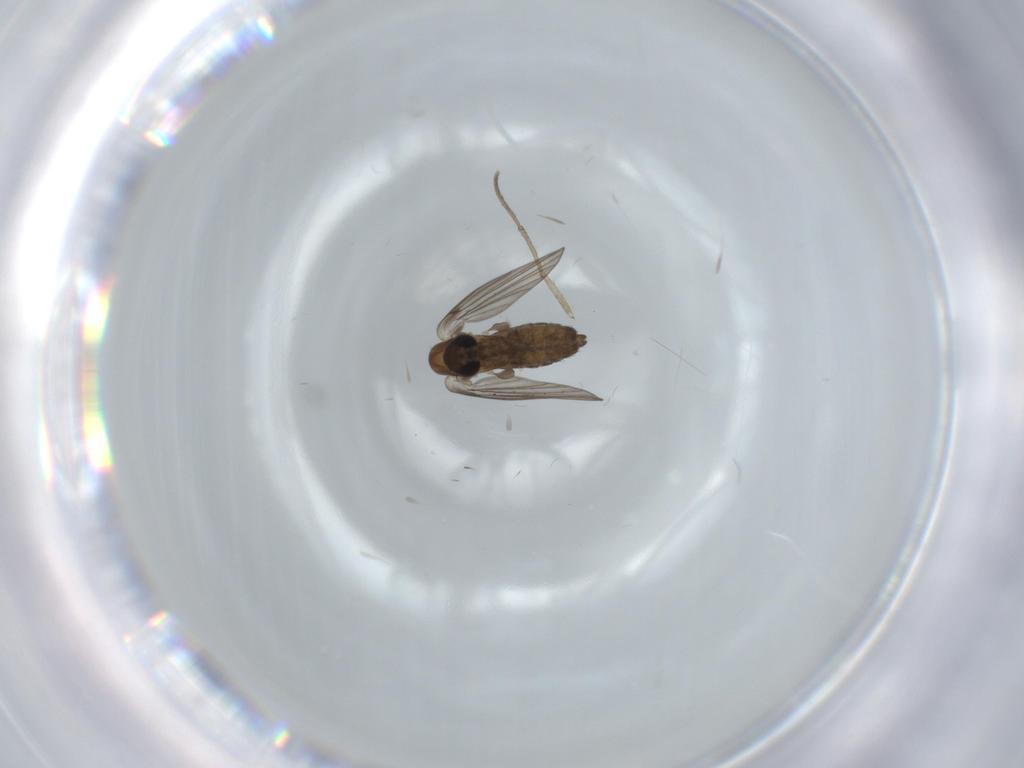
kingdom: Animalia
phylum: Arthropoda
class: Insecta
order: Diptera
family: Psychodidae
